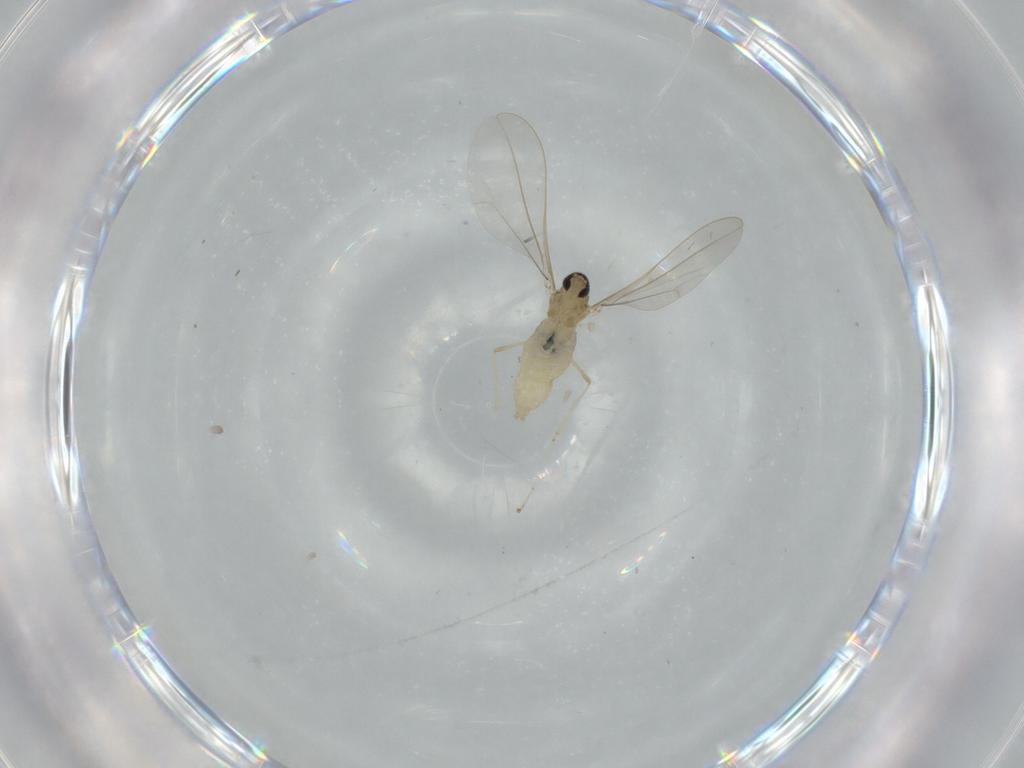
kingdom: Animalia
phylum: Arthropoda
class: Insecta
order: Diptera
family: Cecidomyiidae
